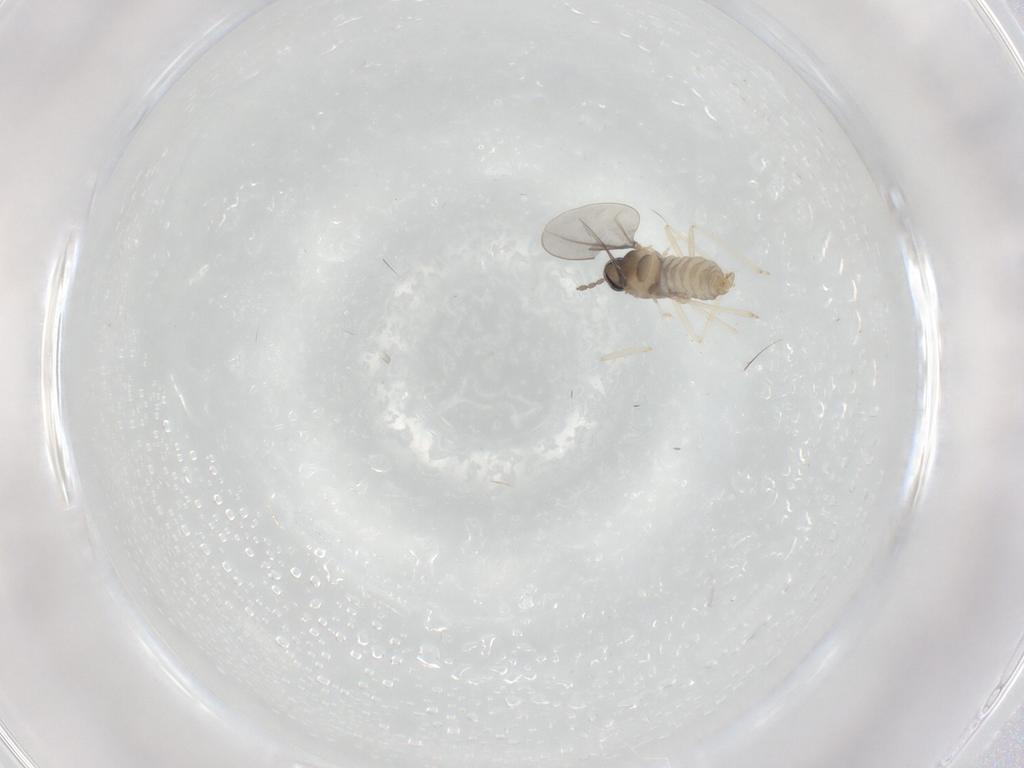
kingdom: Animalia
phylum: Arthropoda
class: Insecta
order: Diptera
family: Cecidomyiidae
